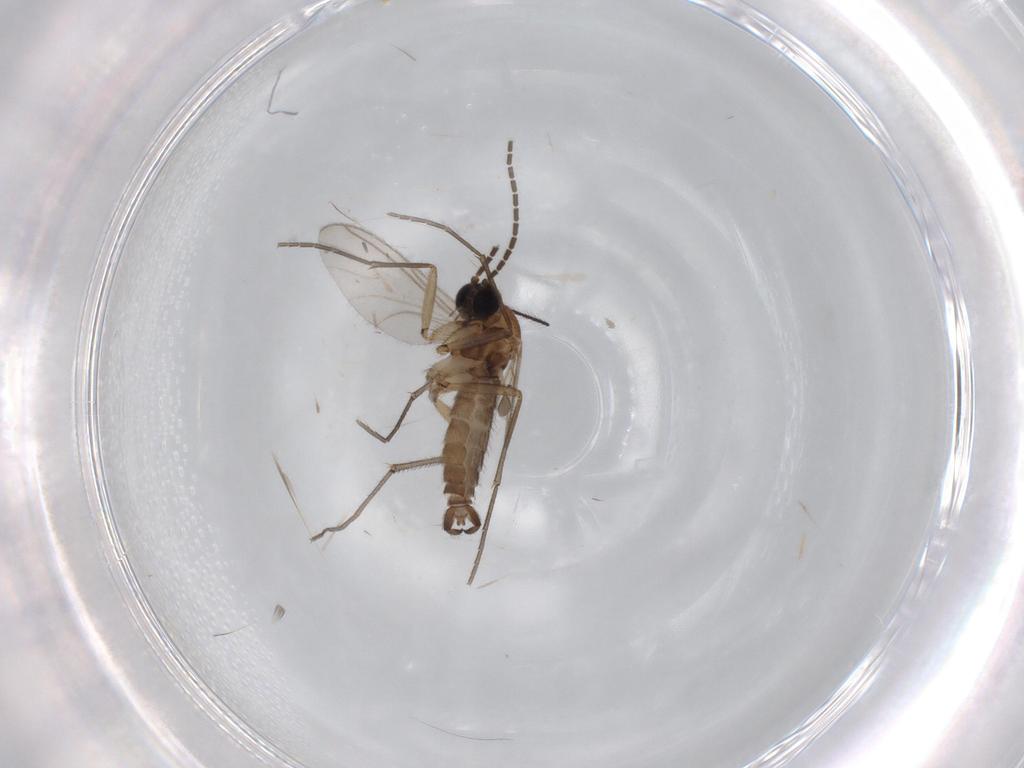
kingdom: Animalia
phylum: Arthropoda
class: Insecta
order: Diptera
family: Sciaridae
